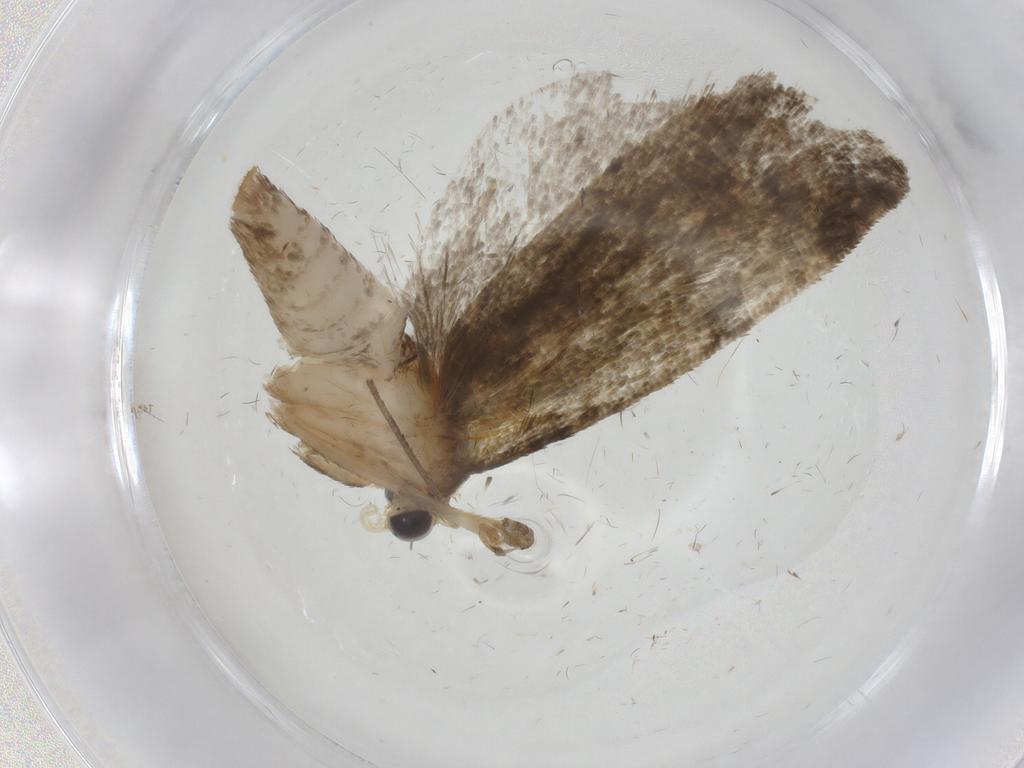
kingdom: Animalia
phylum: Arthropoda
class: Insecta
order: Lepidoptera
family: Tortricidae
